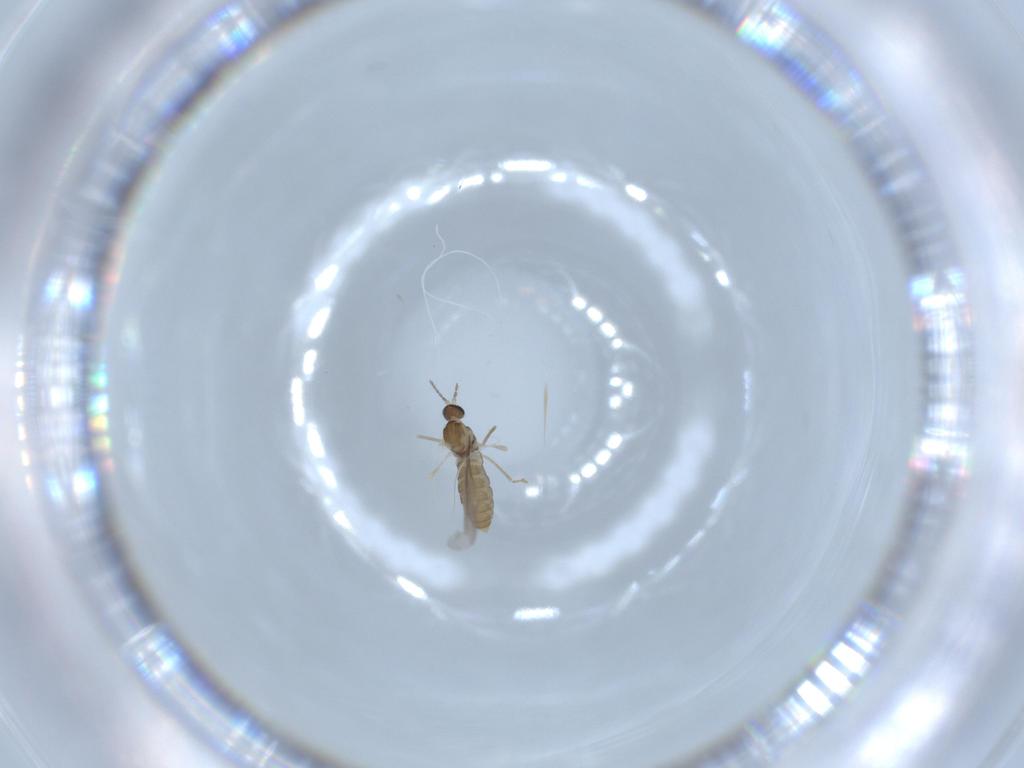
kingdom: Animalia
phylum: Arthropoda
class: Insecta
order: Diptera
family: Cecidomyiidae
